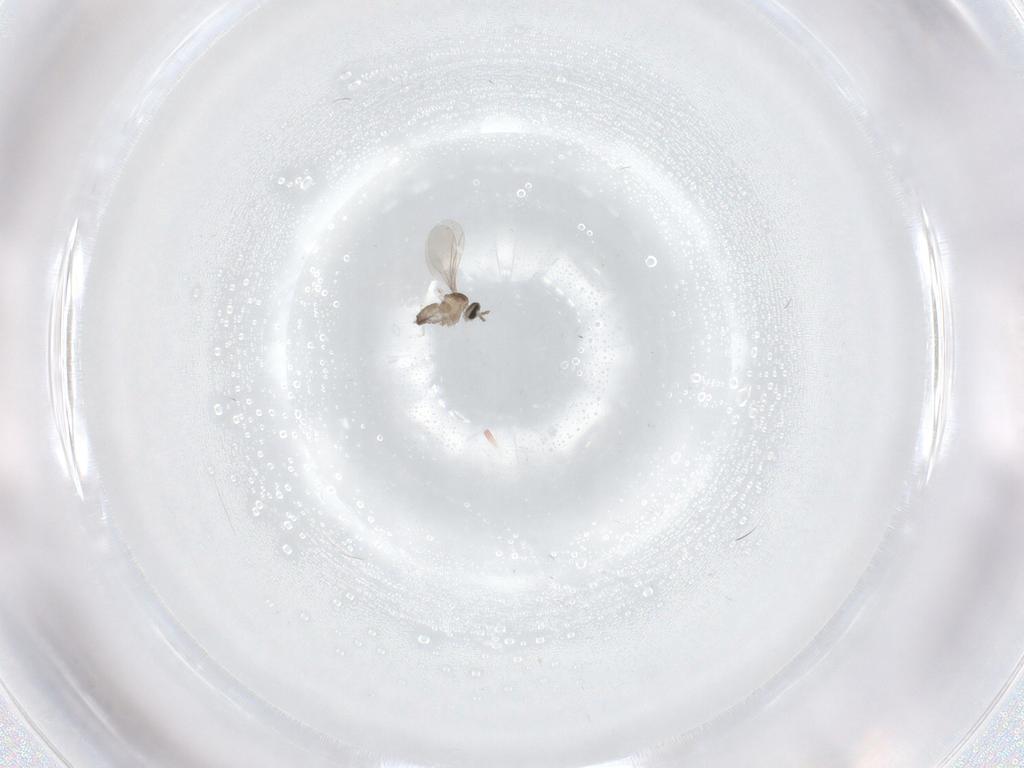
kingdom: Animalia
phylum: Arthropoda
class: Insecta
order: Diptera
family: Cecidomyiidae
